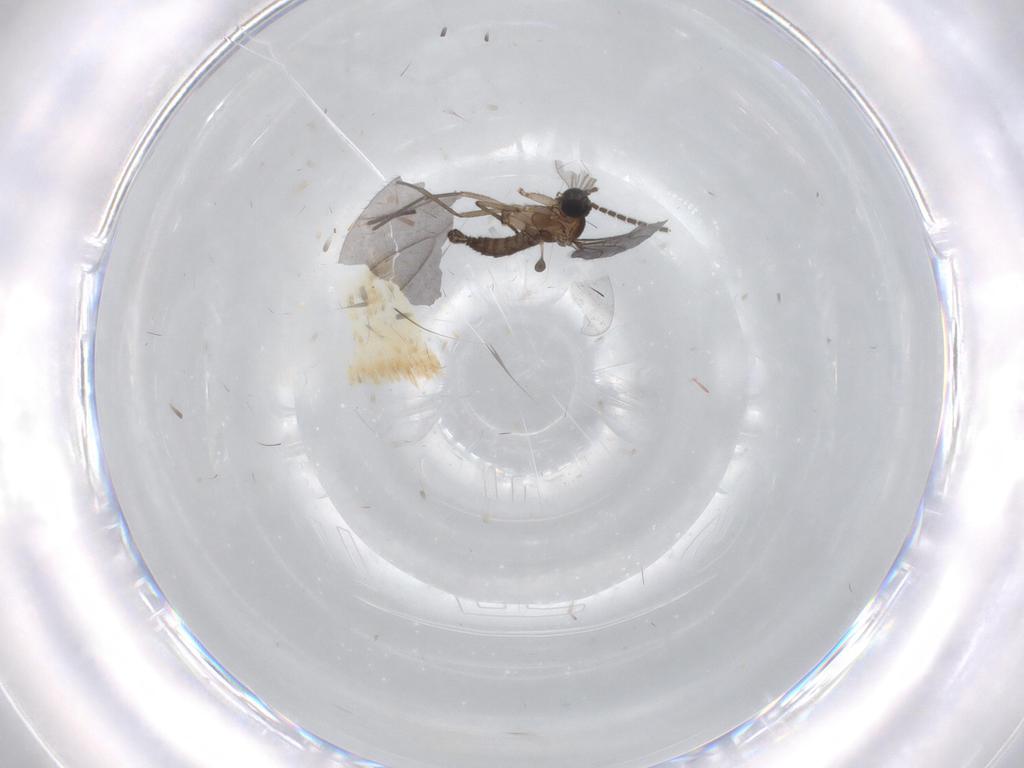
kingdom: Animalia
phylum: Arthropoda
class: Insecta
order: Diptera
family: Sciaridae
